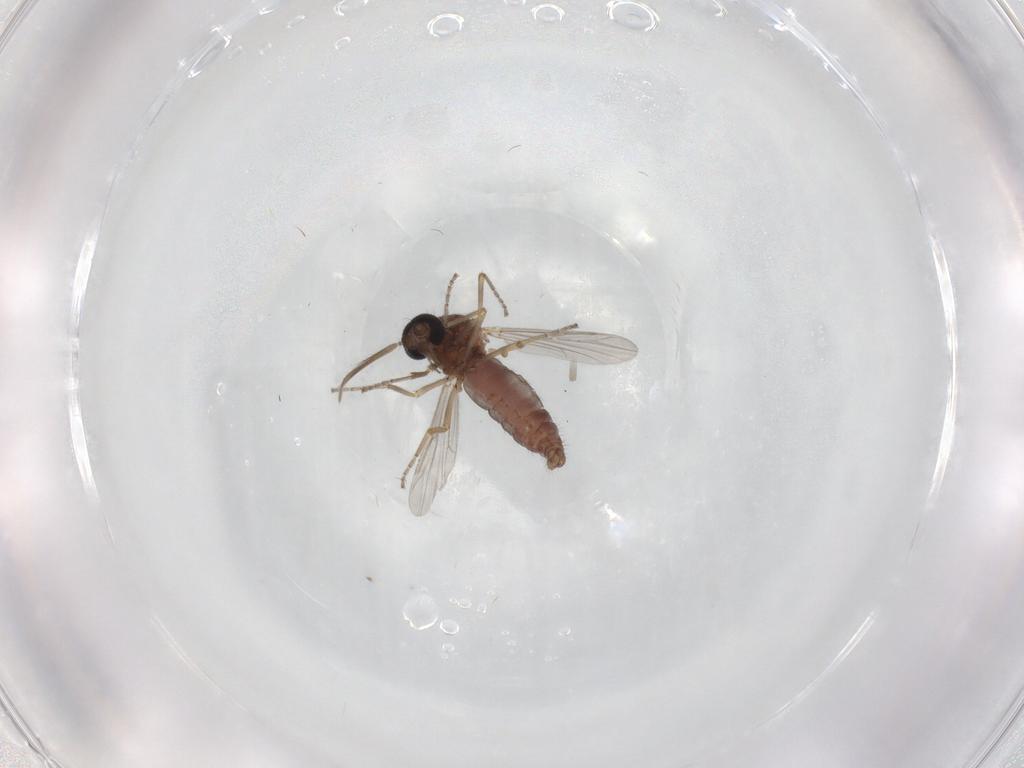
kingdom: Animalia
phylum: Arthropoda
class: Insecta
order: Diptera
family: Ceratopogonidae
